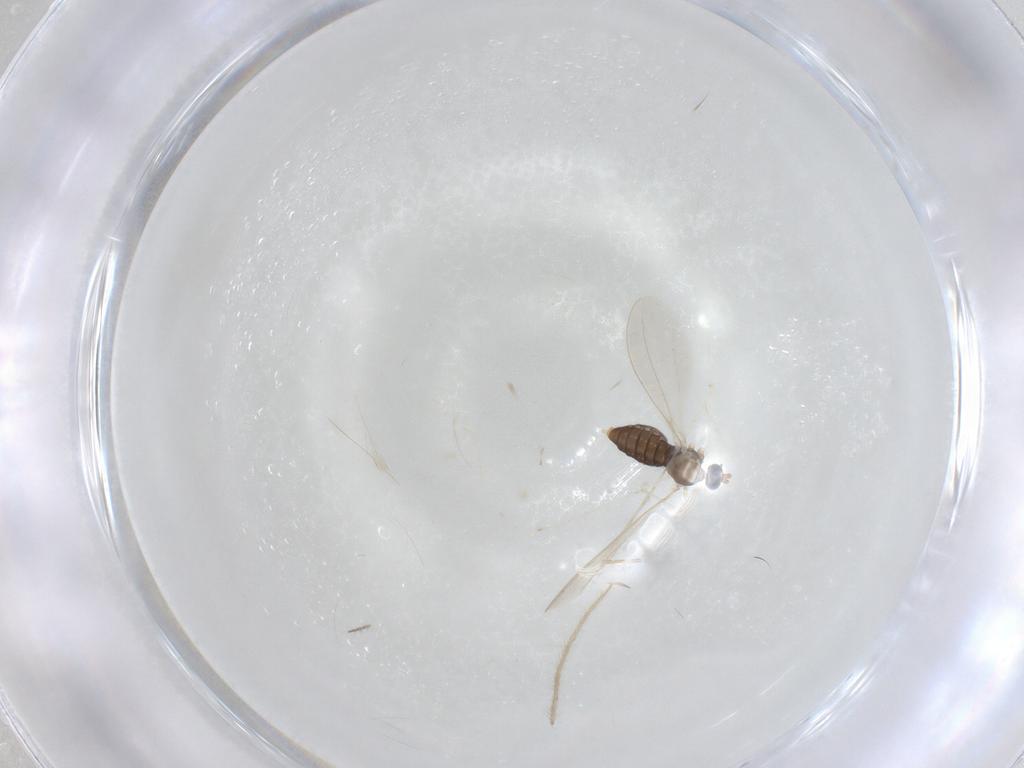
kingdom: Animalia
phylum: Arthropoda
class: Insecta
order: Diptera
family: Cecidomyiidae
